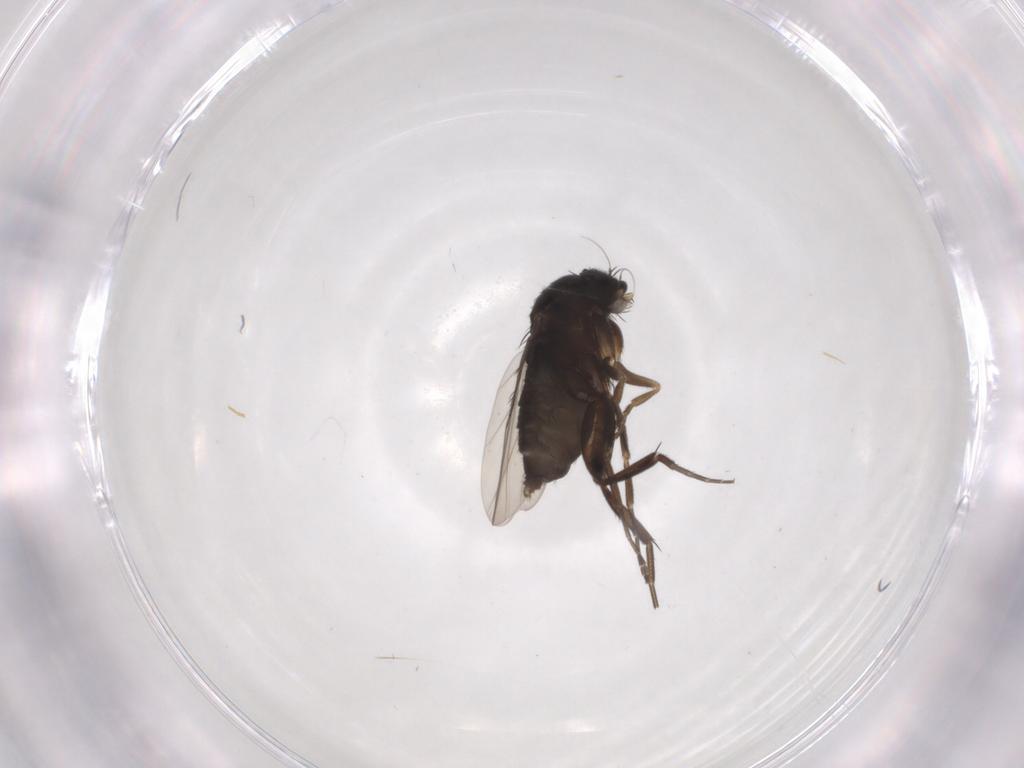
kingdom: Animalia
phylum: Arthropoda
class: Insecta
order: Diptera
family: Phoridae
